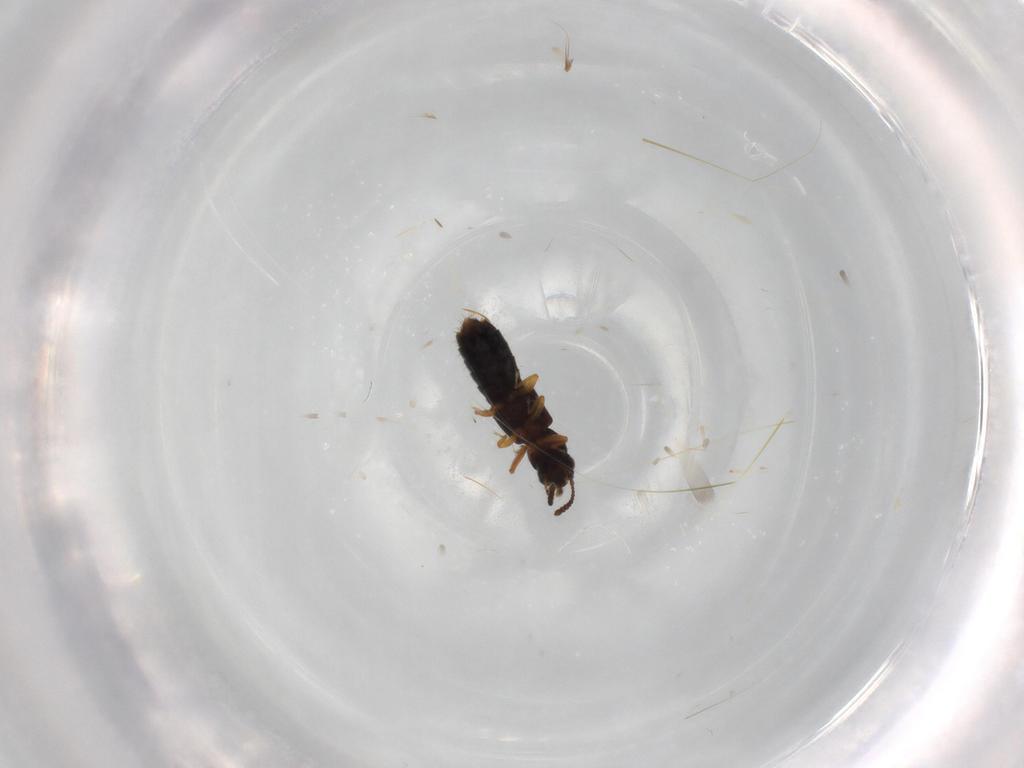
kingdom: Animalia
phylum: Arthropoda
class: Insecta
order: Coleoptera
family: Staphylinidae
